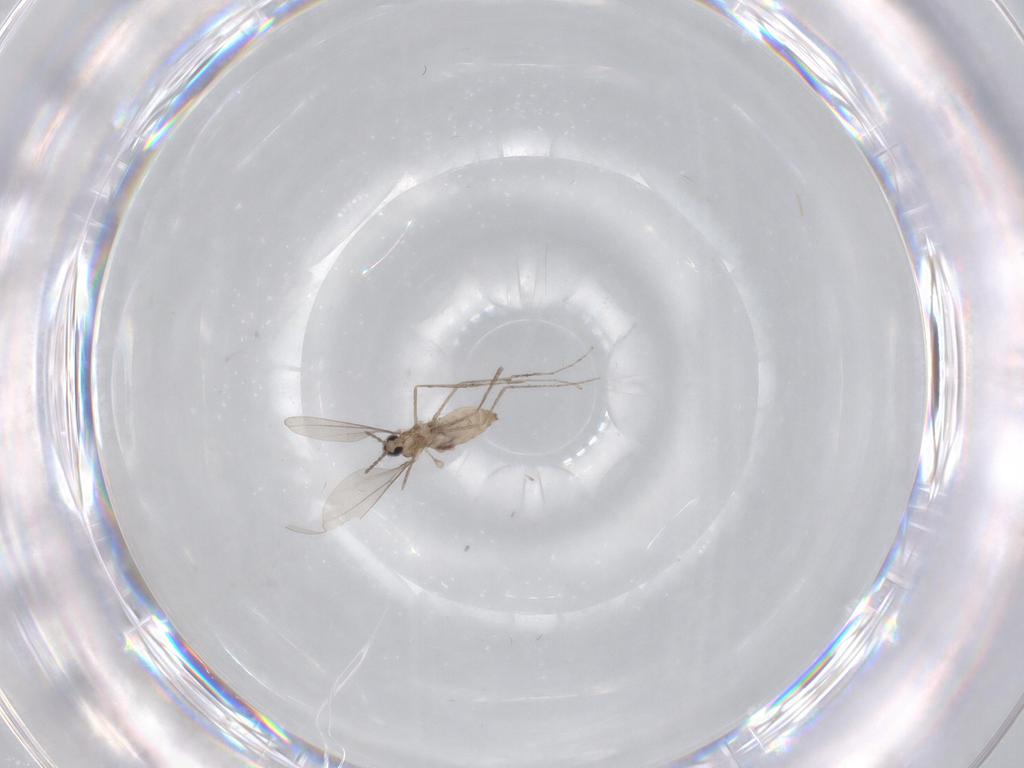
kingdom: Animalia
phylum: Arthropoda
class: Insecta
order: Diptera
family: Cecidomyiidae
